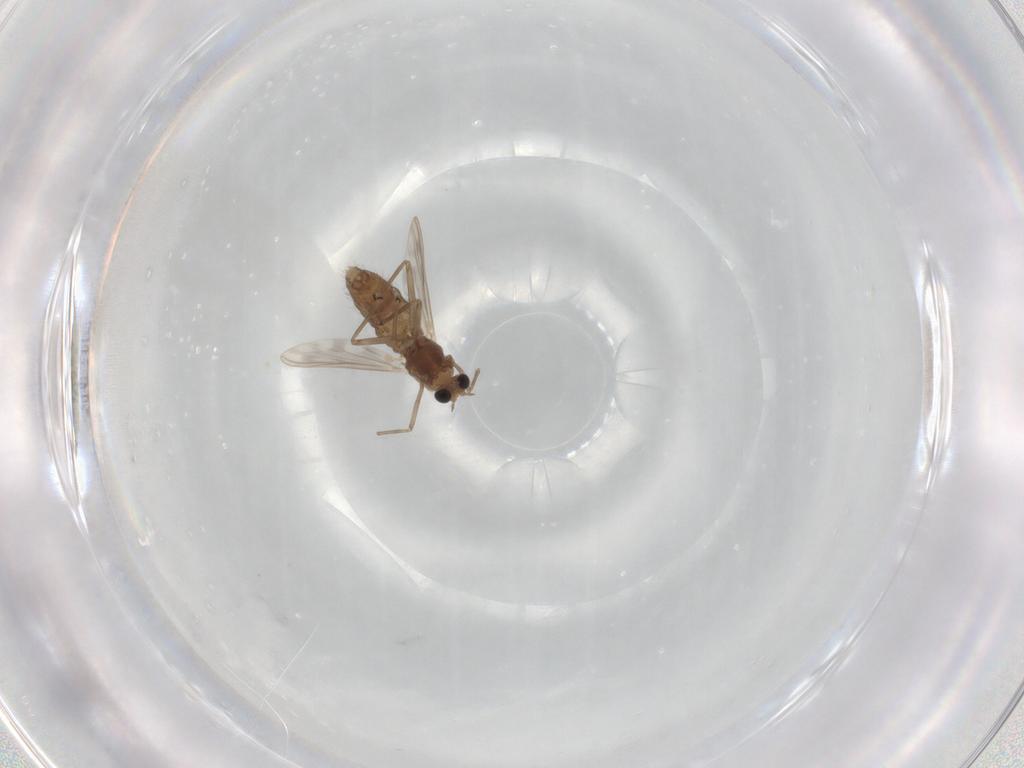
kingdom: Animalia
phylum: Arthropoda
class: Insecta
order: Diptera
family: Chironomidae
